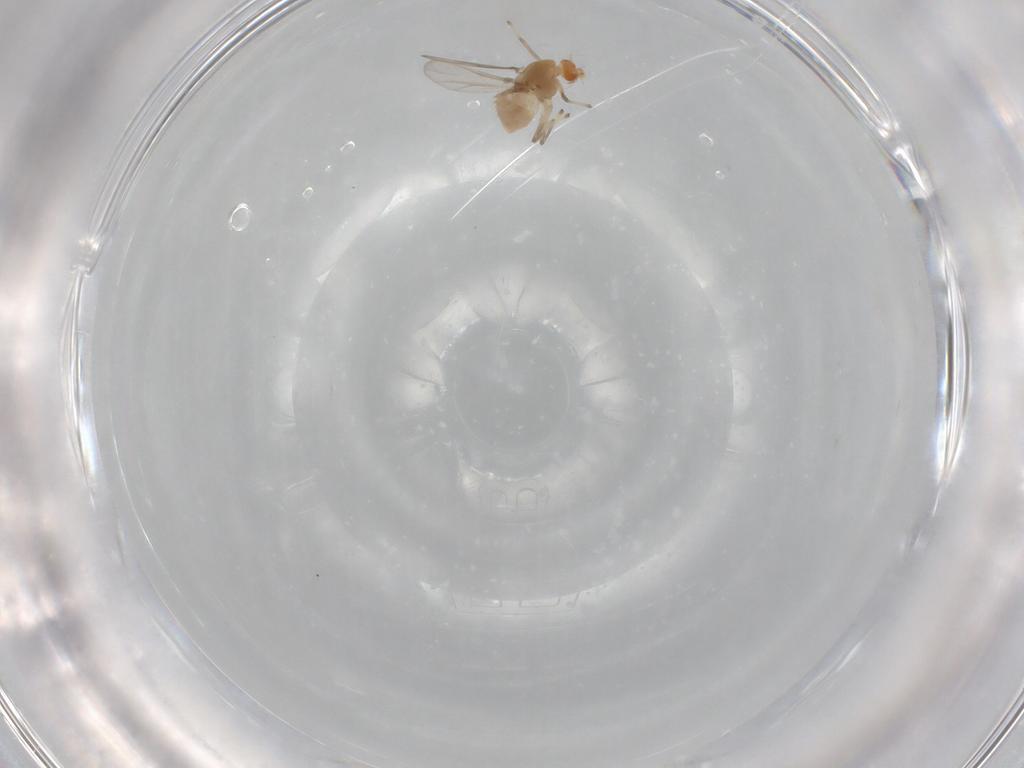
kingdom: Animalia
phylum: Arthropoda
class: Insecta
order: Diptera
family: Chironomidae
